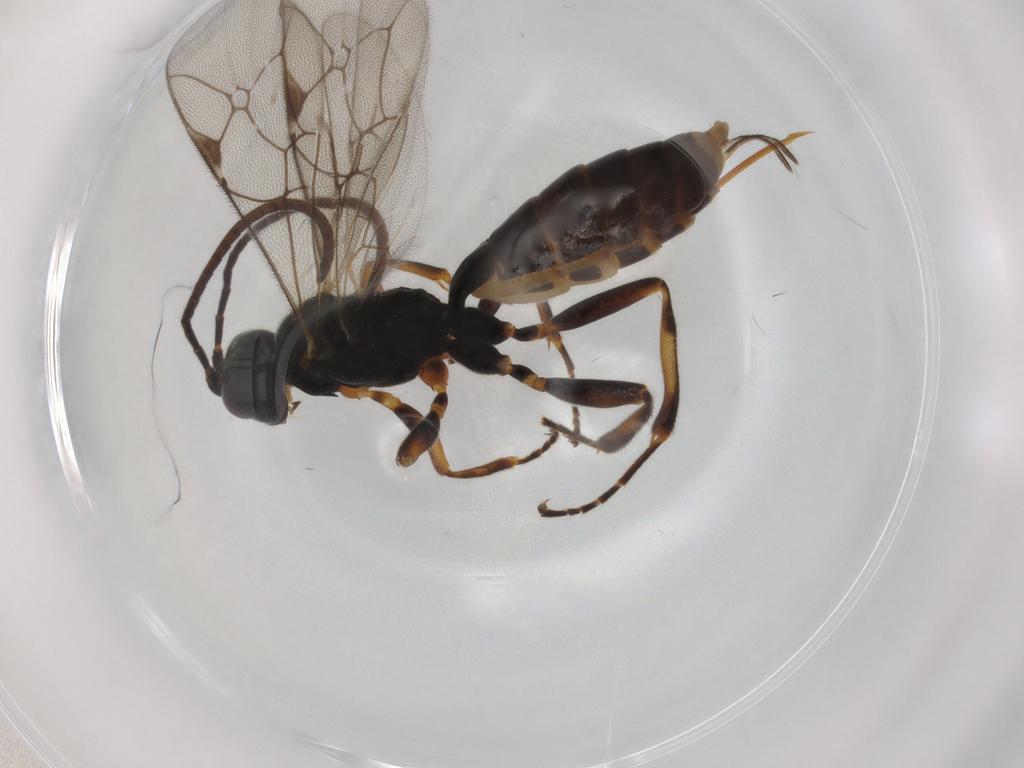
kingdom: Animalia
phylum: Arthropoda
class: Insecta
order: Hymenoptera
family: Ichneumonidae
